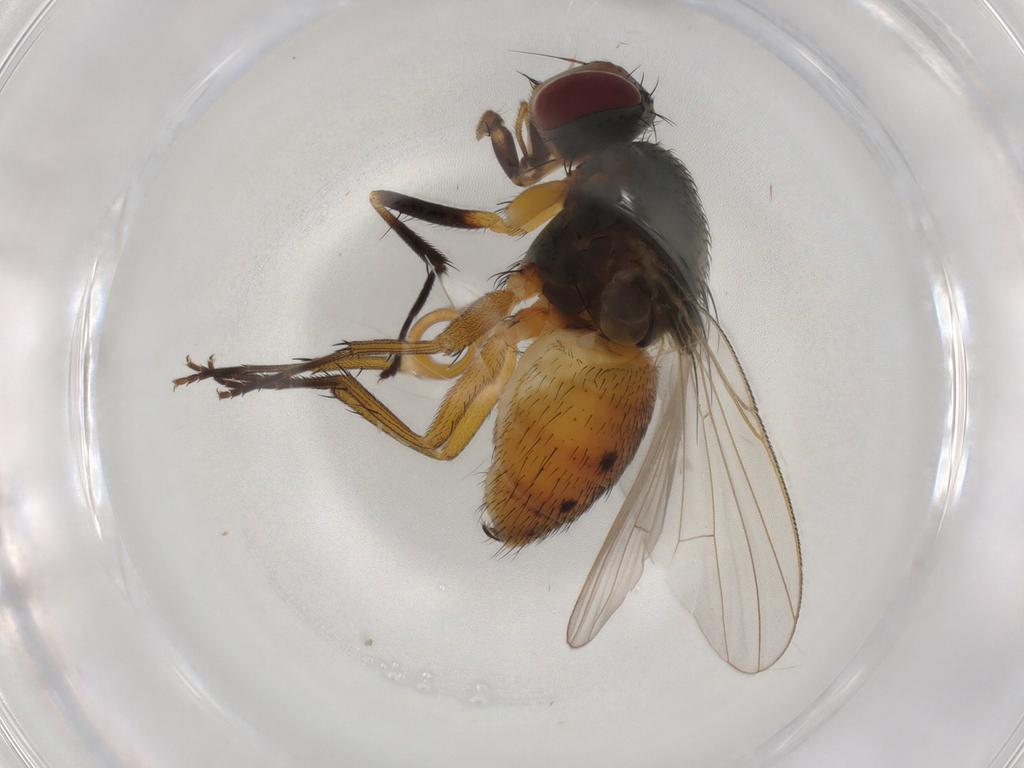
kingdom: Animalia
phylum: Arthropoda
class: Insecta
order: Diptera
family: Muscidae
